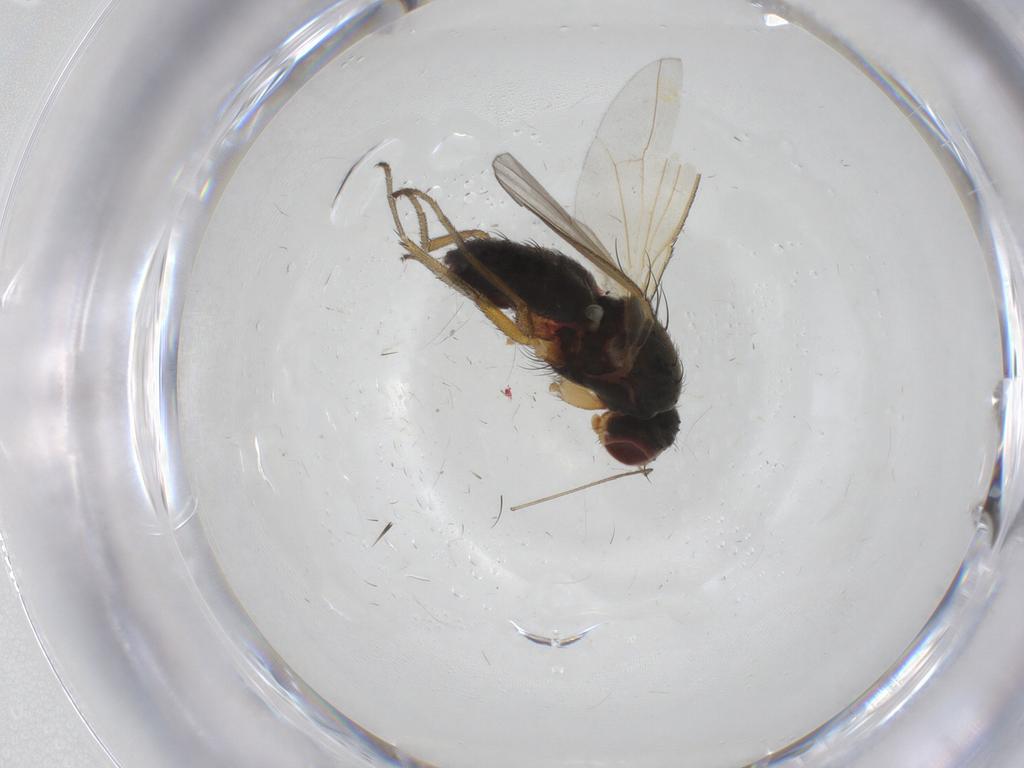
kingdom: Animalia
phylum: Arthropoda
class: Insecta
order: Diptera
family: Heleomyzidae
